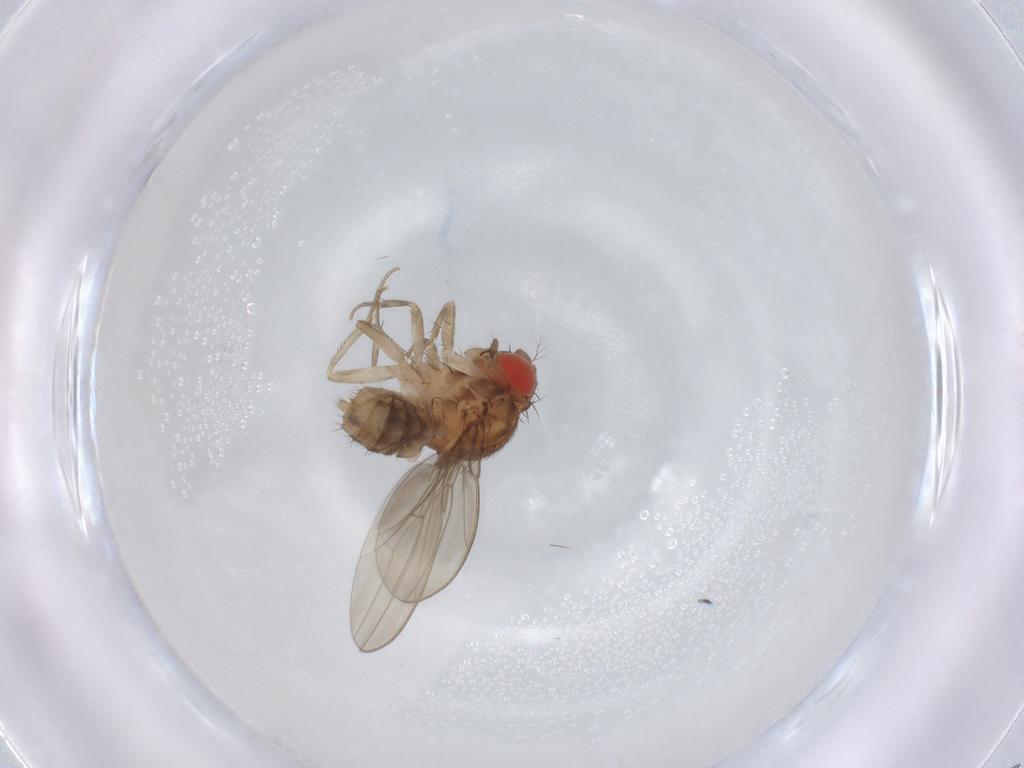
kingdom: Animalia
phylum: Arthropoda
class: Insecta
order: Diptera
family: Drosophilidae
